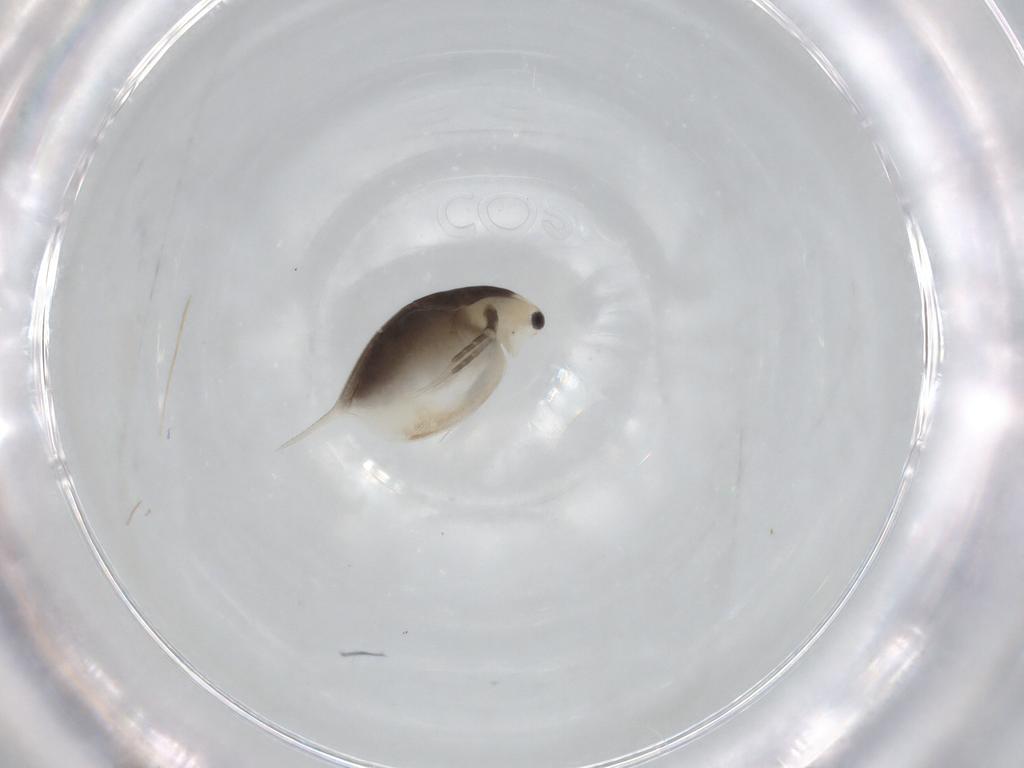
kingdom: Animalia
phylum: Arthropoda
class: Branchiopoda
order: Diplostraca
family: Daphniidae
